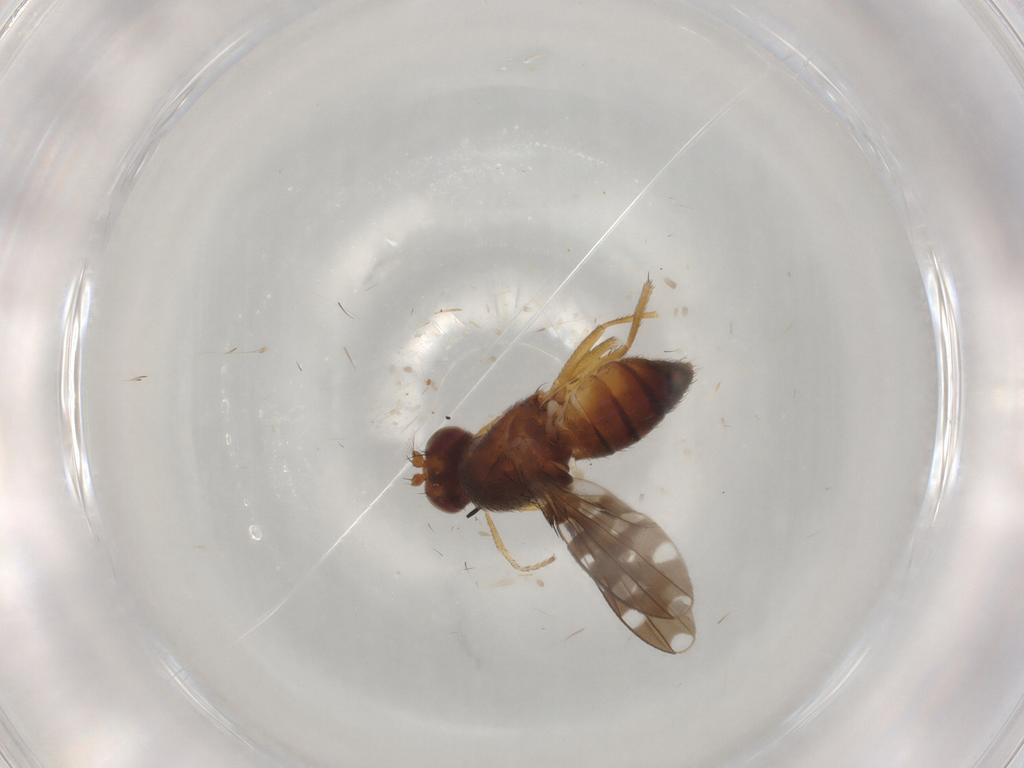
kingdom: Animalia
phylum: Arthropoda
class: Insecta
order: Diptera
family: Ephydridae
